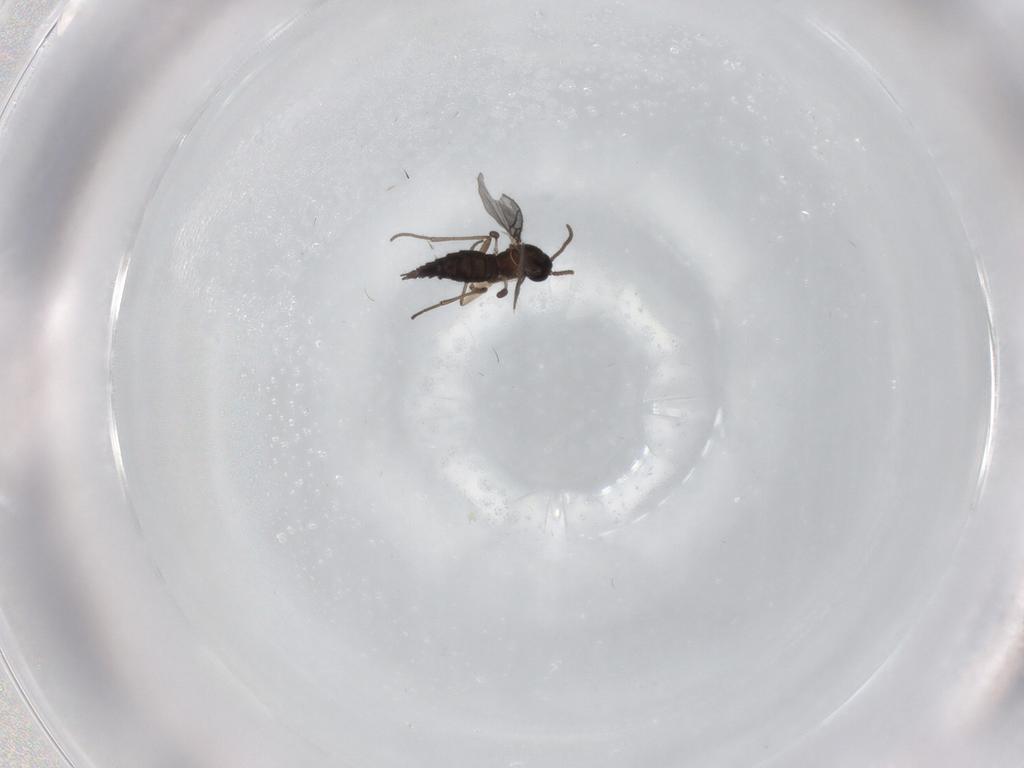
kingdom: Animalia
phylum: Arthropoda
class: Insecta
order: Diptera
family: Sciaridae
